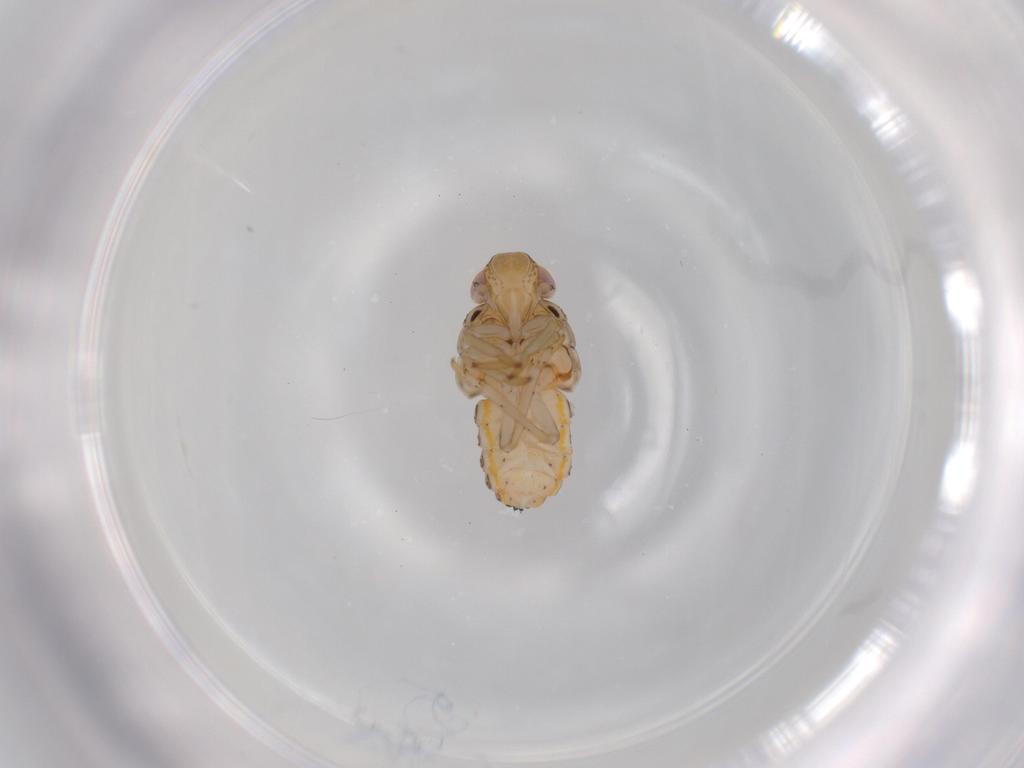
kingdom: Animalia
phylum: Arthropoda
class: Insecta
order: Hemiptera
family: Issidae
